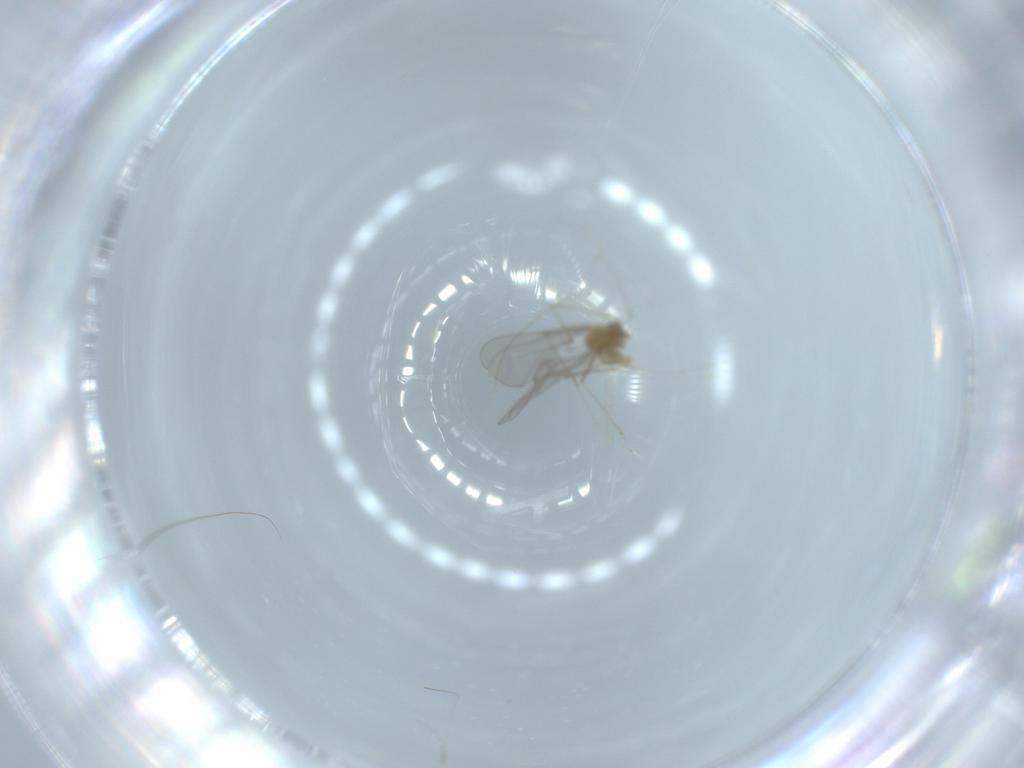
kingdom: Animalia
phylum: Arthropoda
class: Insecta
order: Diptera
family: Cecidomyiidae
